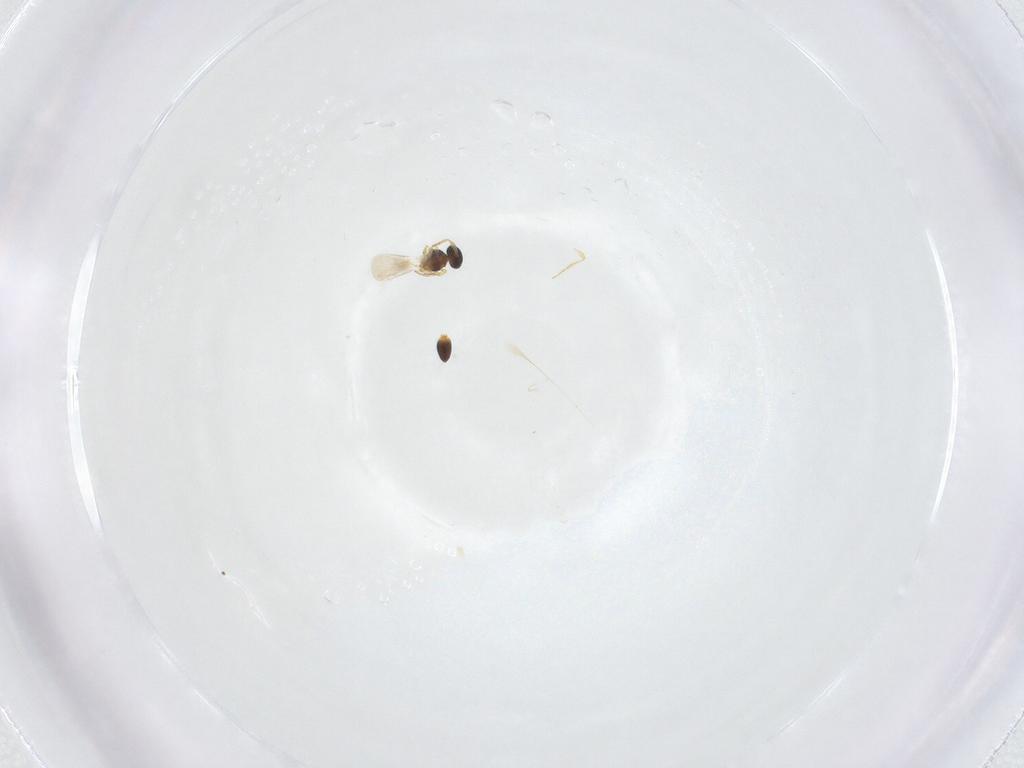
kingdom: Animalia
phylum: Arthropoda
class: Insecta
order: Hymenoptera
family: Platygastridae
